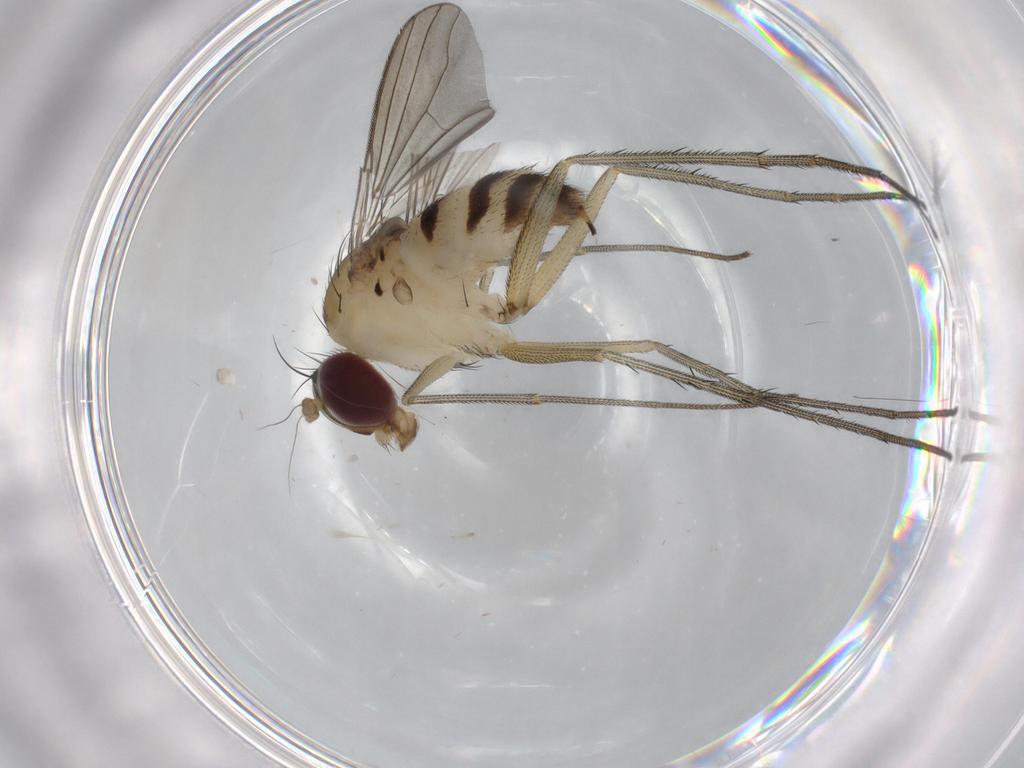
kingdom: Animalia
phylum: Arthropoda
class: Insecta
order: Diptera
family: Dolichopodidae
